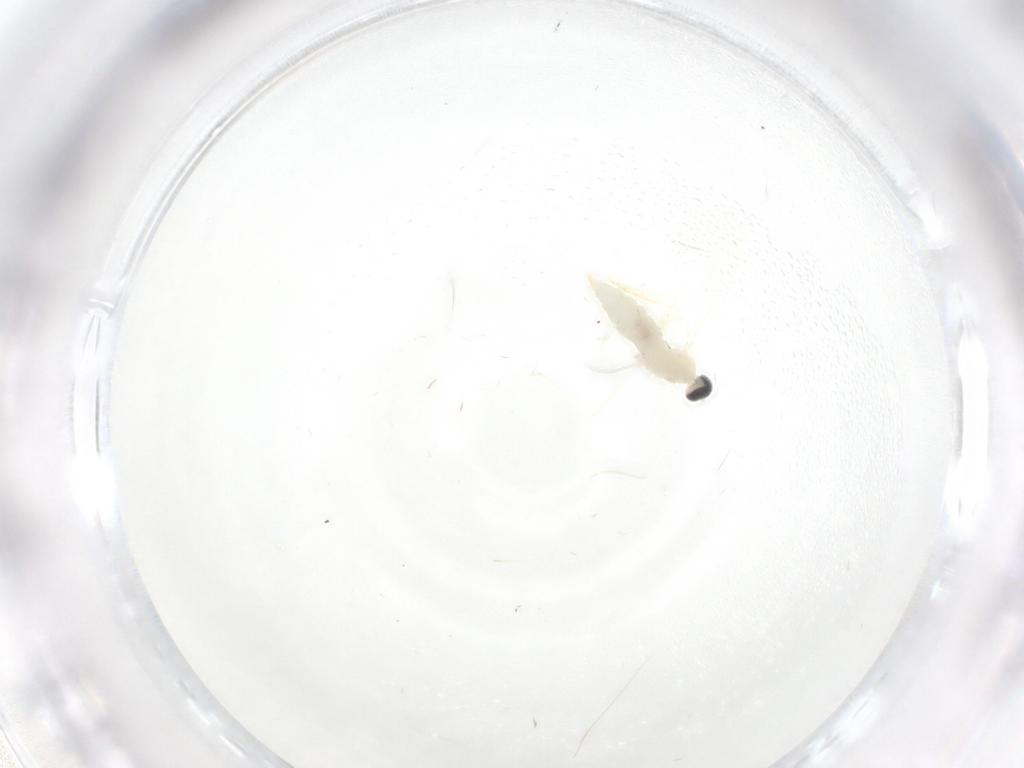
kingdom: Animalia
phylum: Arthropoda
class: Insecta
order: Diptera
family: Cecidomyiidae
